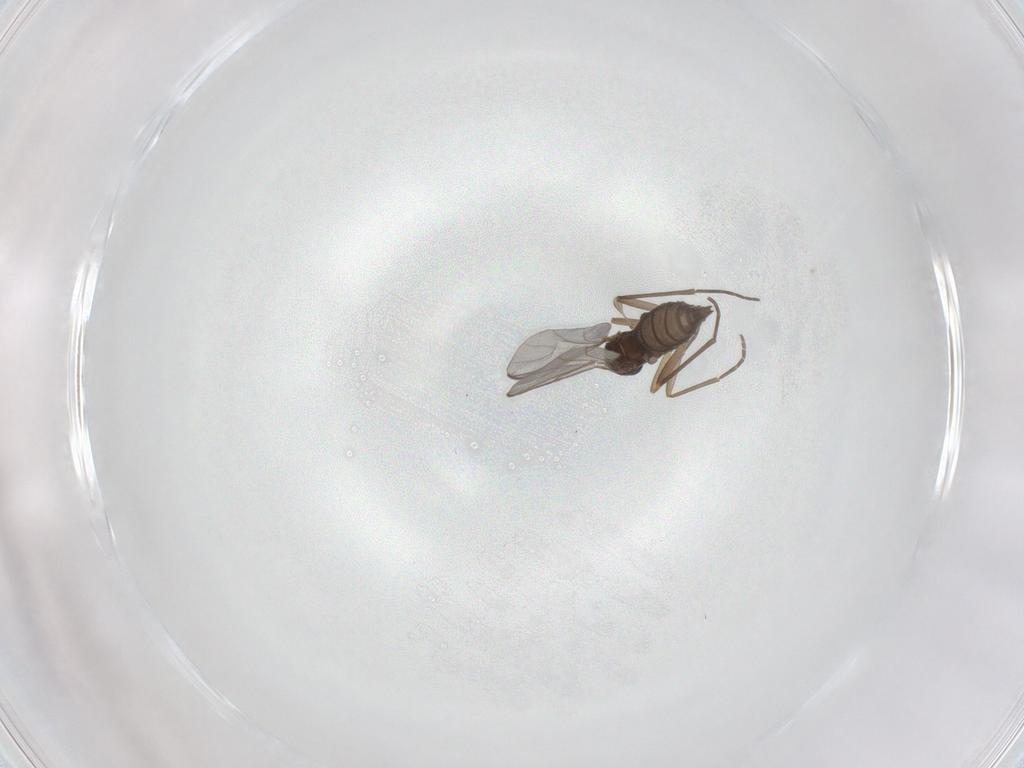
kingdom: Animalia
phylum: Arthropoda
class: Insecta
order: Diptera
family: Sciaridae
